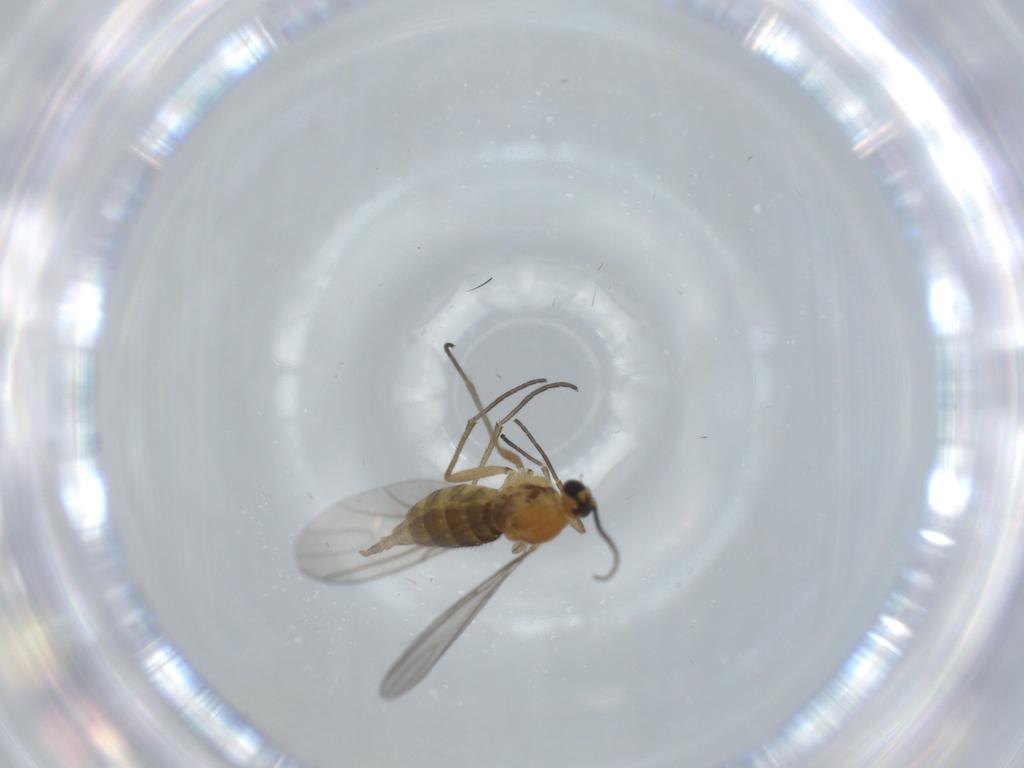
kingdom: Animalia
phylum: Arthropoda
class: Insecta
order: Diptera
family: Sciaridae
